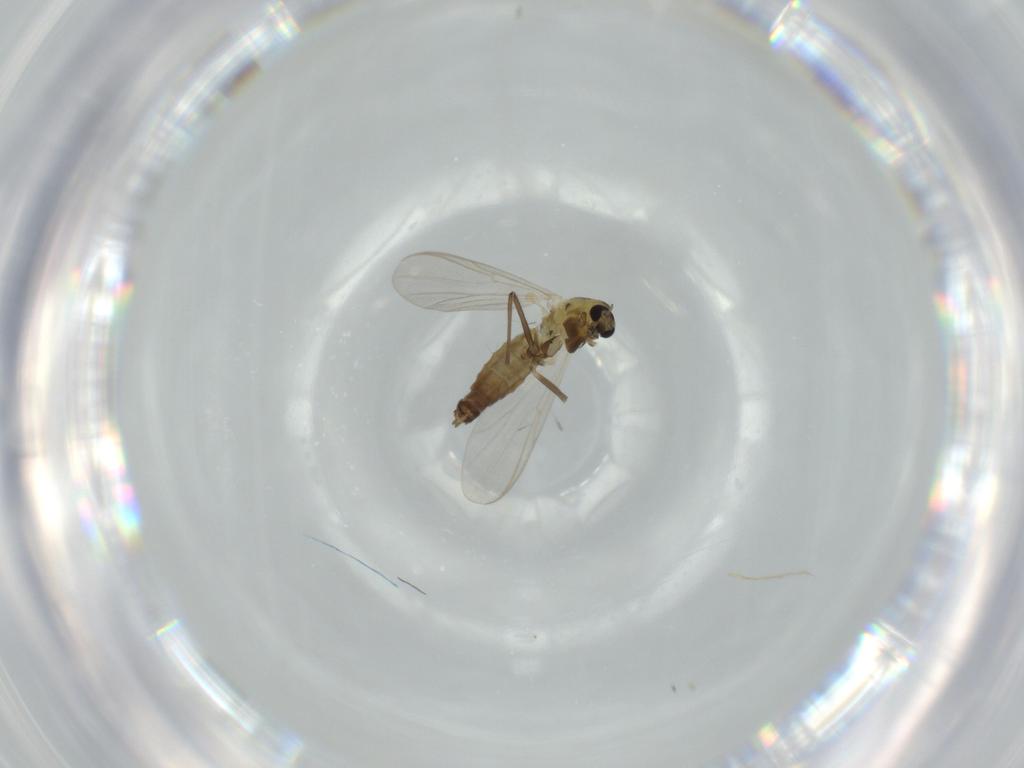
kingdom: Animalia
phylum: Arthropoda
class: Insecta
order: Diptera
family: Chironomidae
